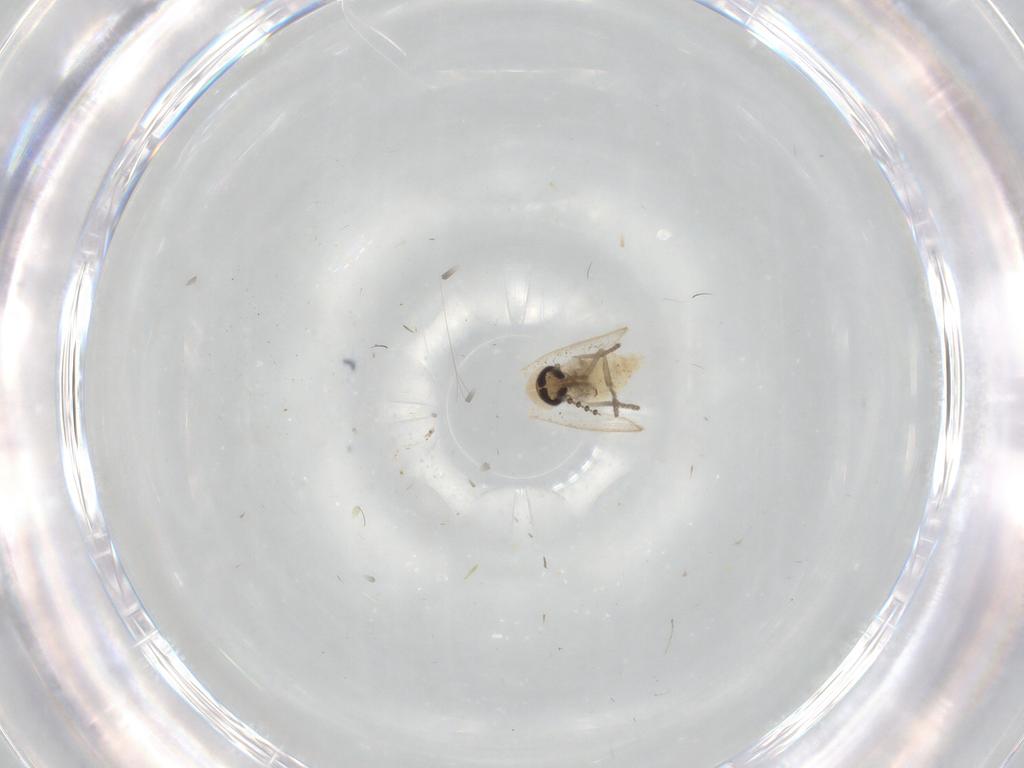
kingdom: Animalia
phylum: Arthropoda
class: Insecta
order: Diptera
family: Psychodidae
